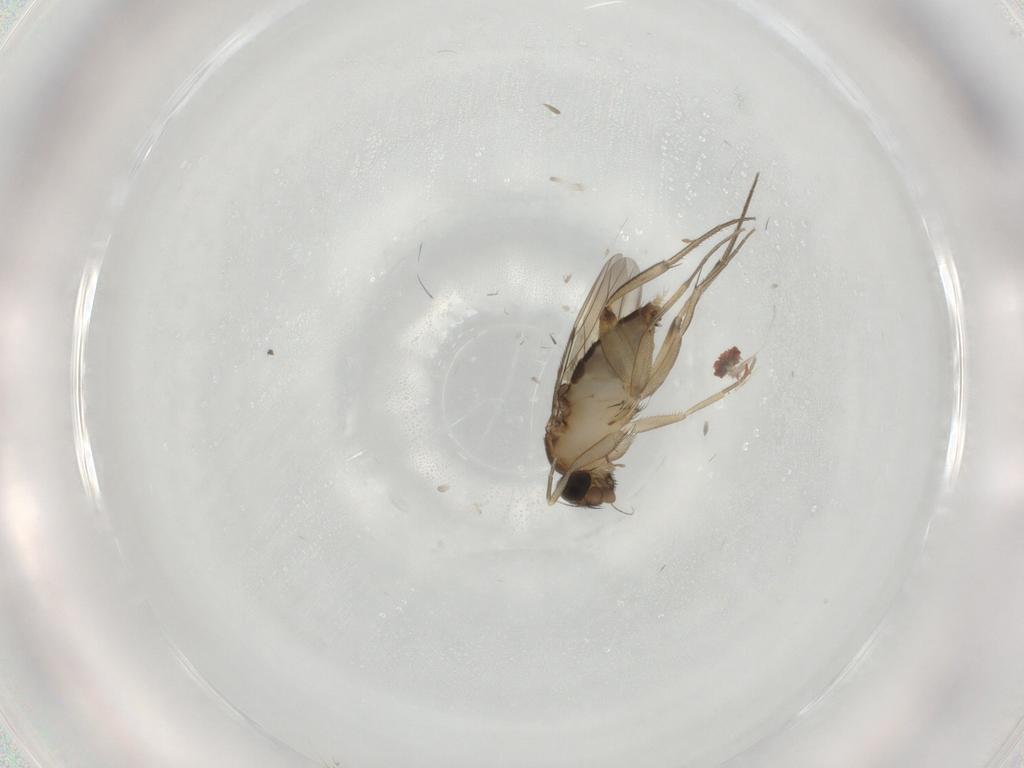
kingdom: Animalia
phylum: Arthropoda
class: Insecta
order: Diptera
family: Phoridae
